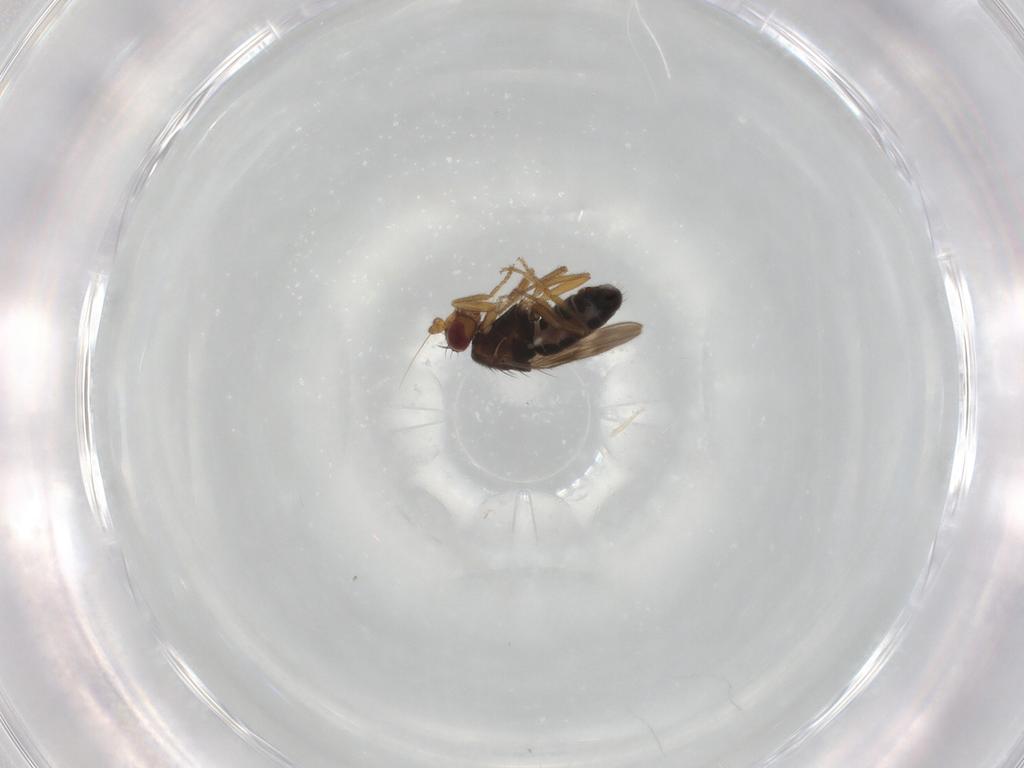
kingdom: Animalia
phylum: Arthropoda
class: Insecta
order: Diptera
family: Sphaeroceridae
